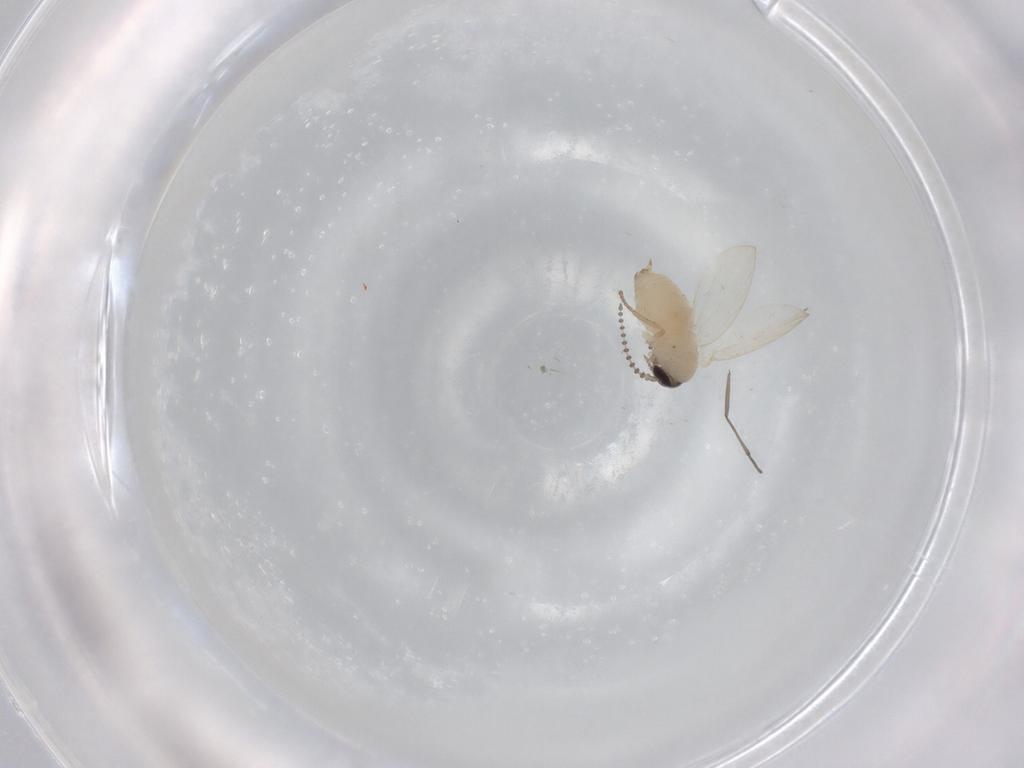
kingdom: Animalia
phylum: Arthropoda
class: Insecta
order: Diptera
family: Psychodidae
